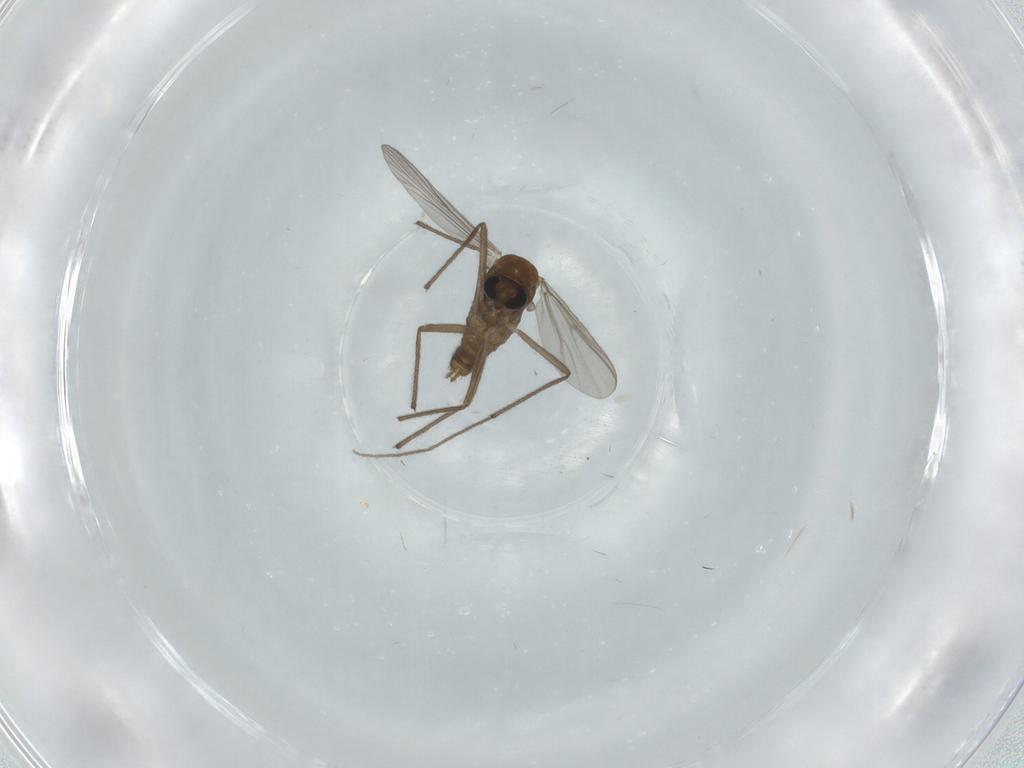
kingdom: Animalia
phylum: Arthropoda
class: Insecta
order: Diptera
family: Chironomidae
